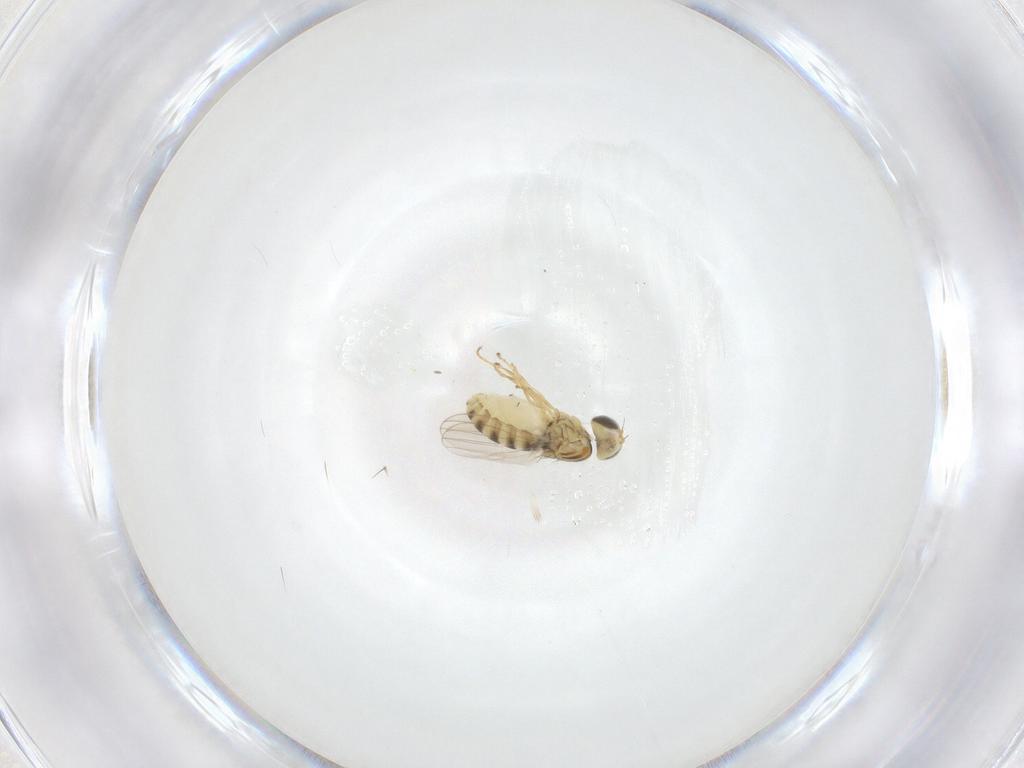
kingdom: Animalia
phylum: Arthropoda
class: Insecta
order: Diptera
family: Chyromyidae
